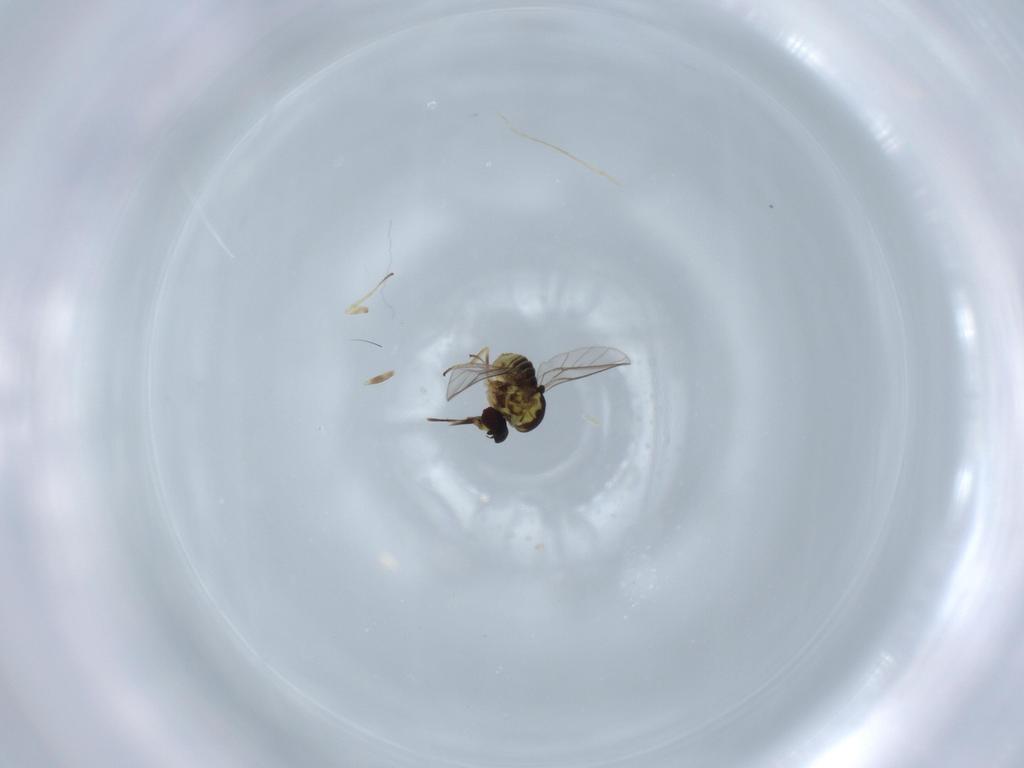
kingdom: Animalia
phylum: Arthropoda
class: Insecta
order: Diptera
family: Mythicomyiidae
